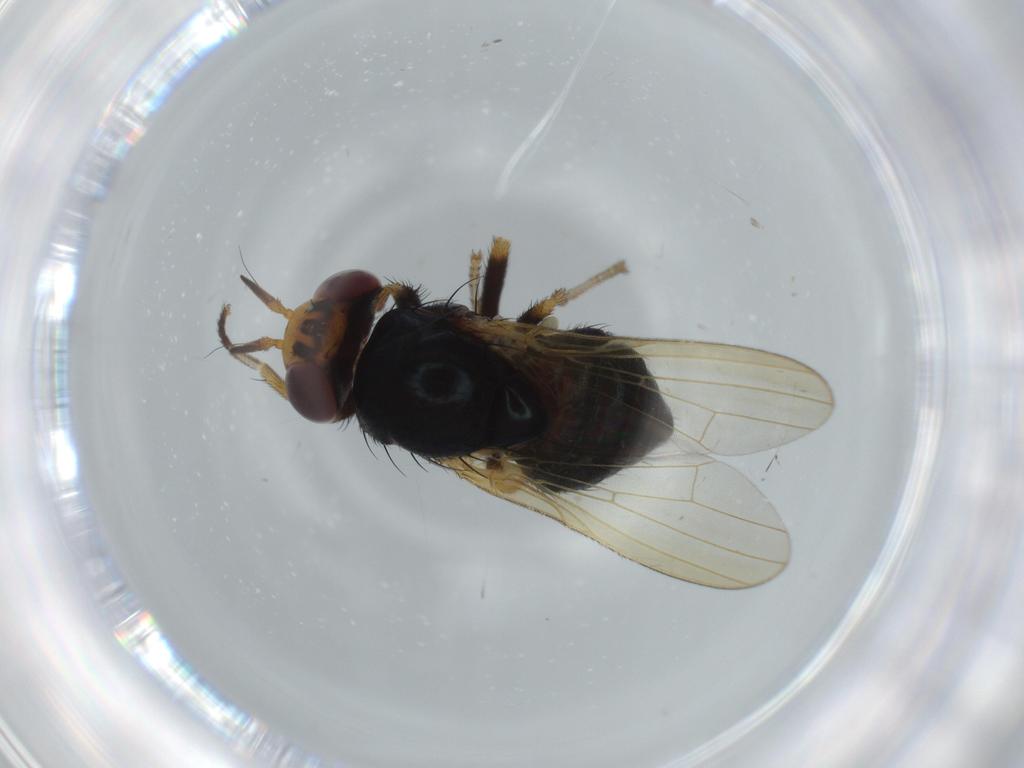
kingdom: Animalia
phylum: Arthropoda
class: Insecta
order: Diptera
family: Lauxaniidae
